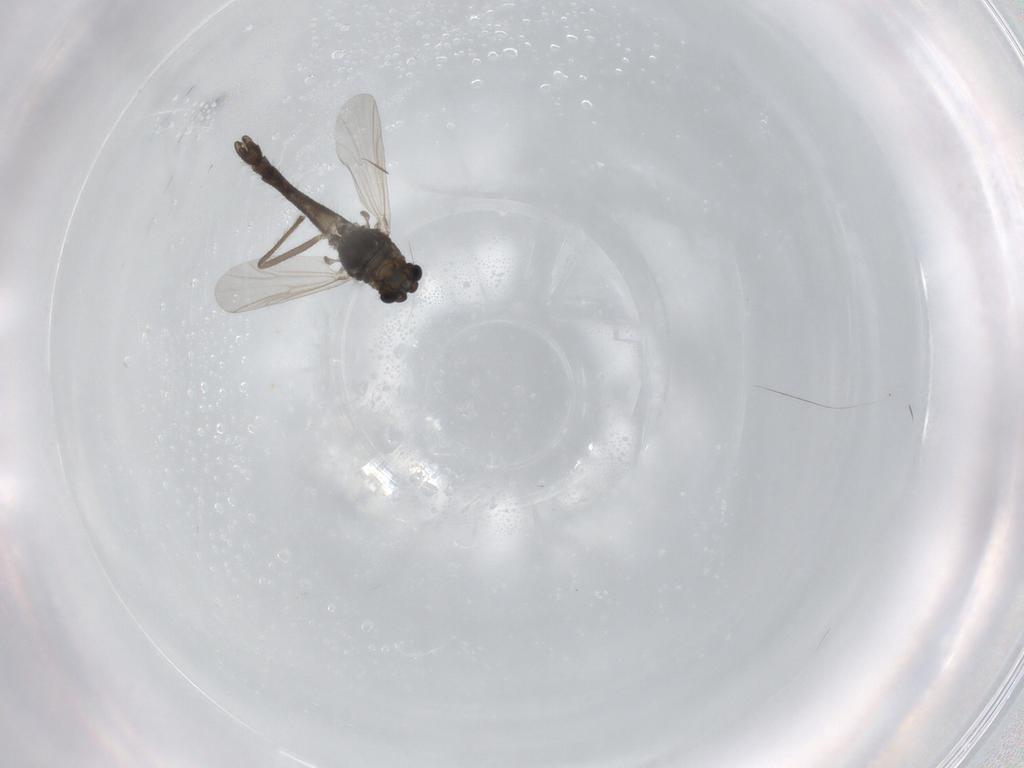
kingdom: Animalia
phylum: Arthropoda
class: Insecta
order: Diptera
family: Chironomidae
